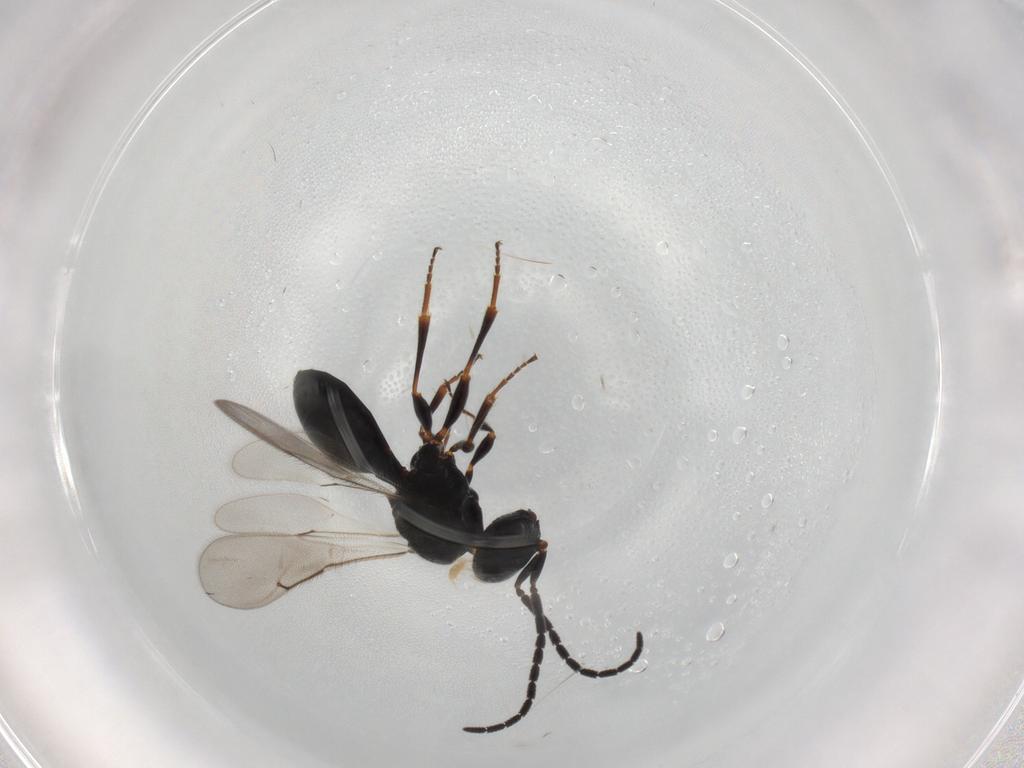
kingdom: Animalia
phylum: Arthropoda
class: Insecta
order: Hymenoptera
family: Scelionidae
